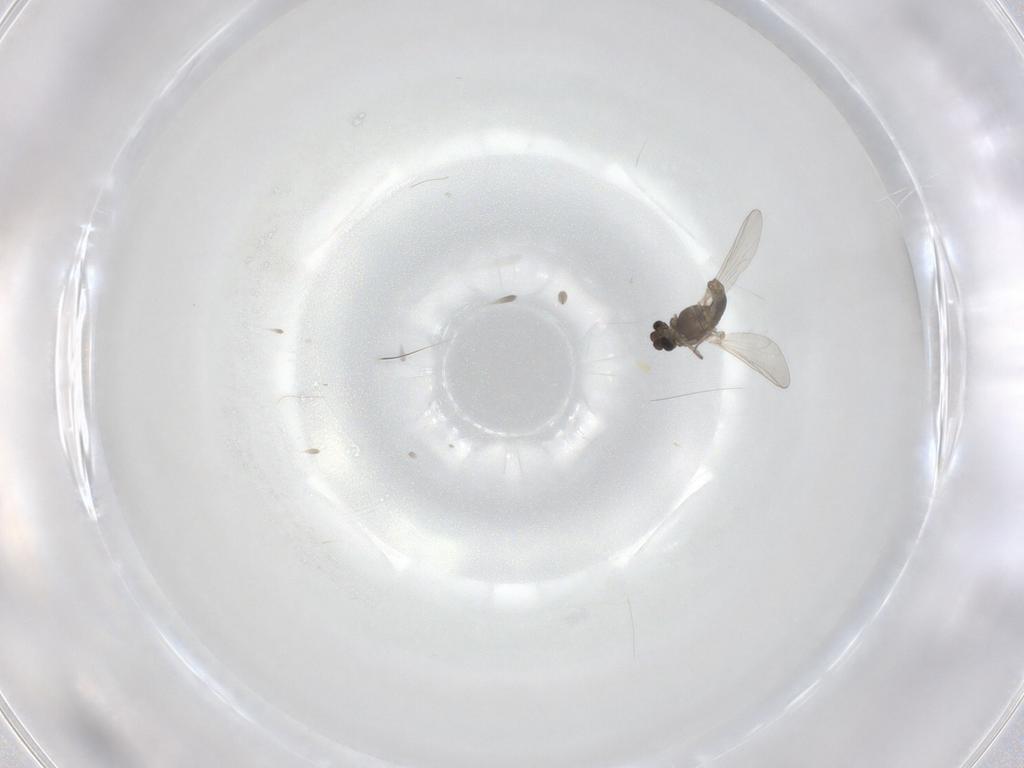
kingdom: Animalia
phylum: Arthropoda
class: Insecta
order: Diptera
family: Chironomidae
